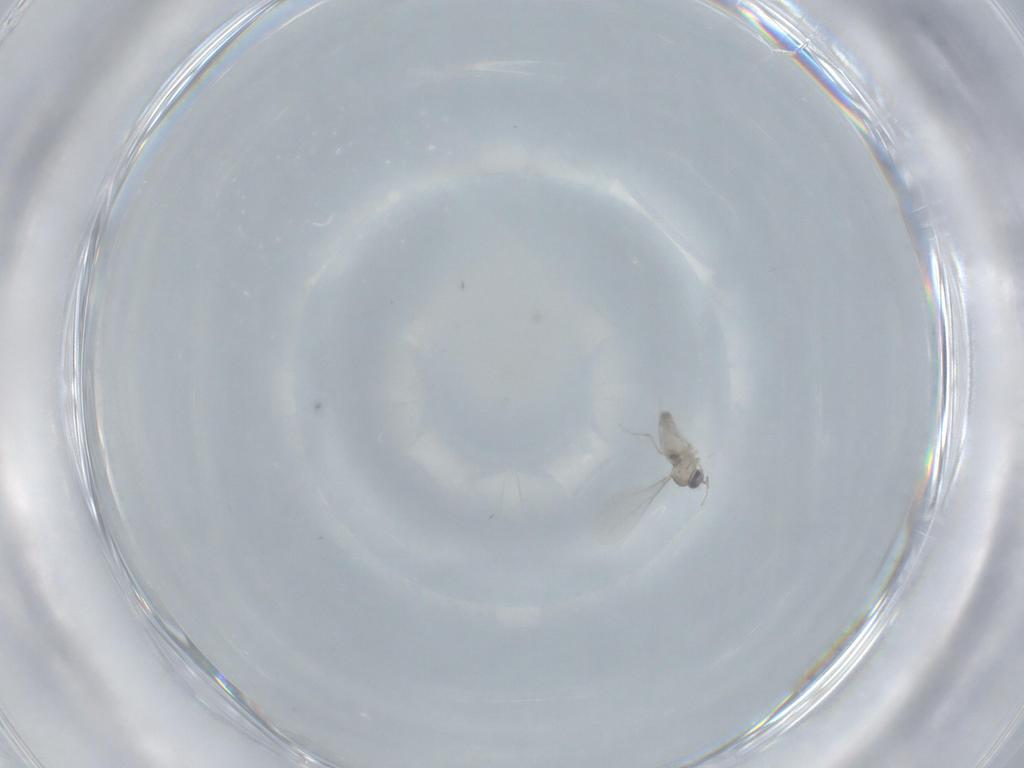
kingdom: Animalia
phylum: Arthropoda
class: Insecta
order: Diptera
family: Cecidomyiidae
